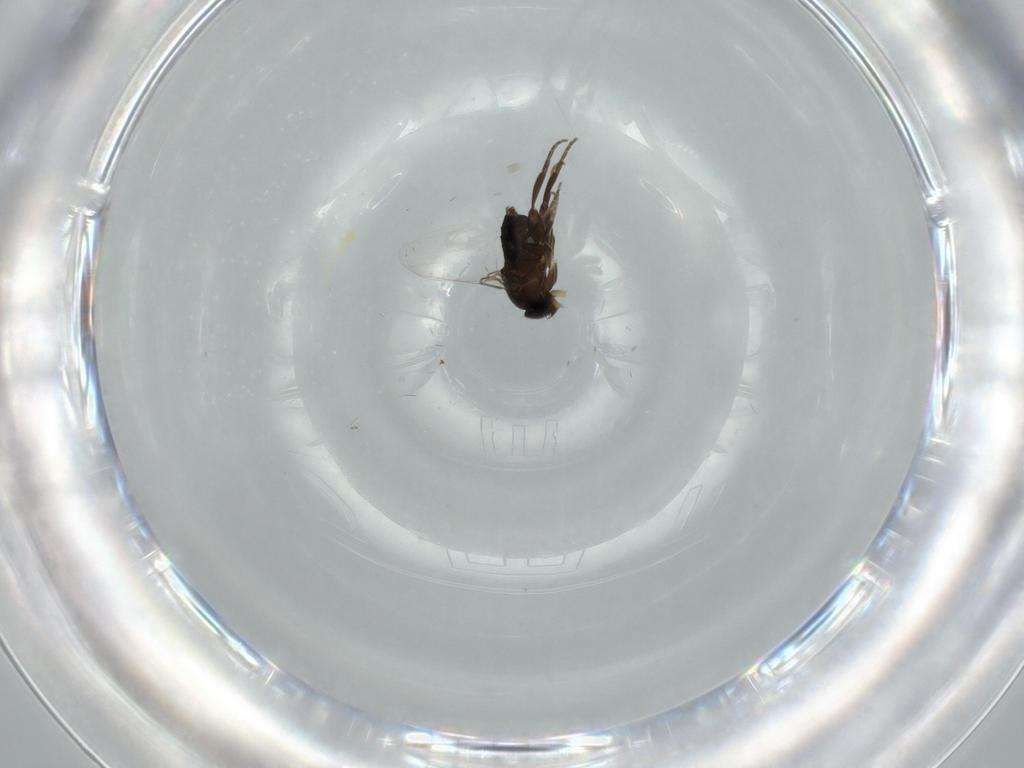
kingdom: Animalia
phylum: Arthropoda
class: Insecta
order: Diptera
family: Phoridae
